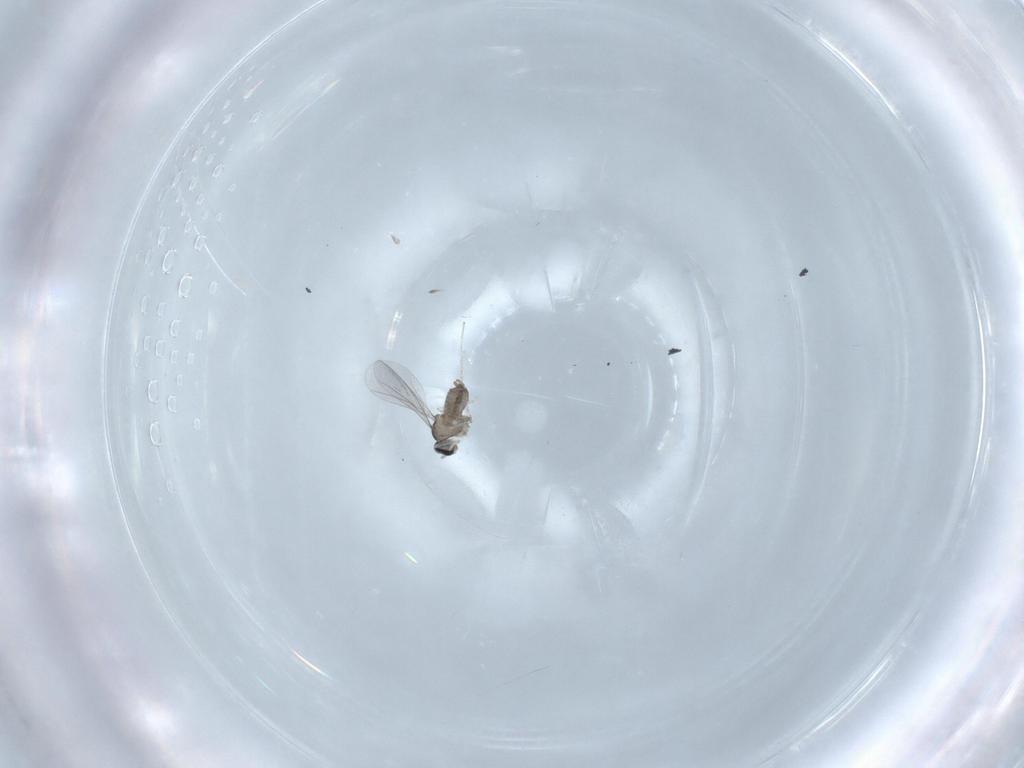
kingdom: Animalia
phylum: Arthropoda
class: Insecta
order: Diptera
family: Cecidomyiidae
